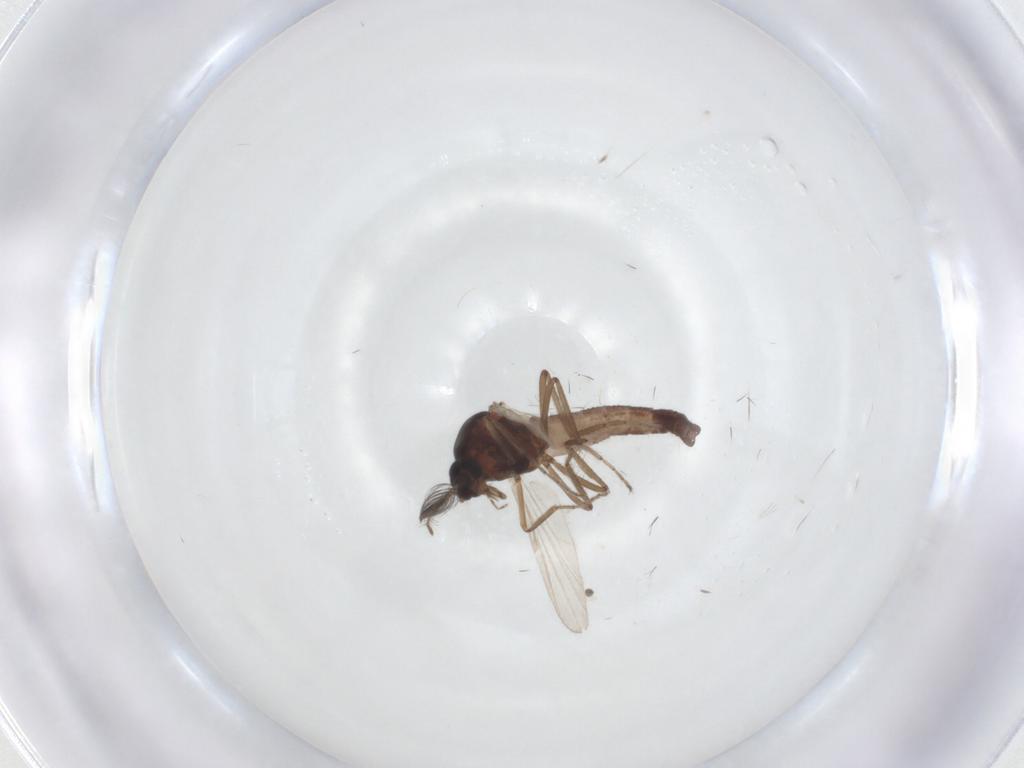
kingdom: Animalia
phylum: Arthropoda
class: Insecta
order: Diptera
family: Ceratopogonidae
